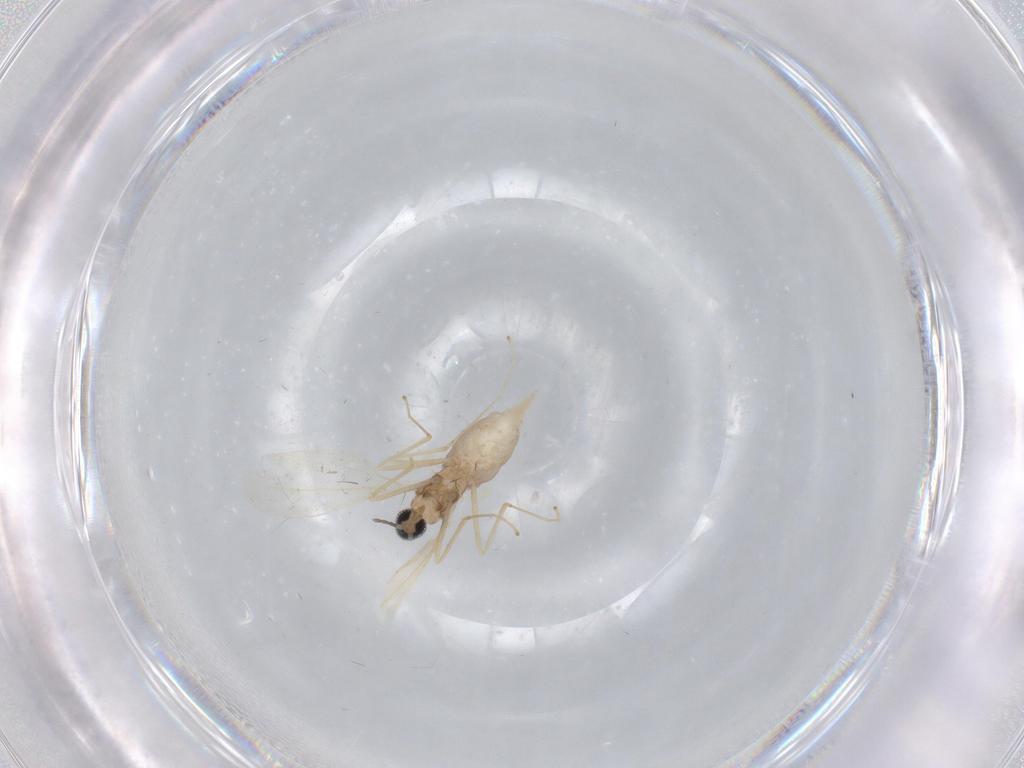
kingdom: Animalia
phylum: Arthropoda
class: Insecta
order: Diptera
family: Cecidomyiidae
